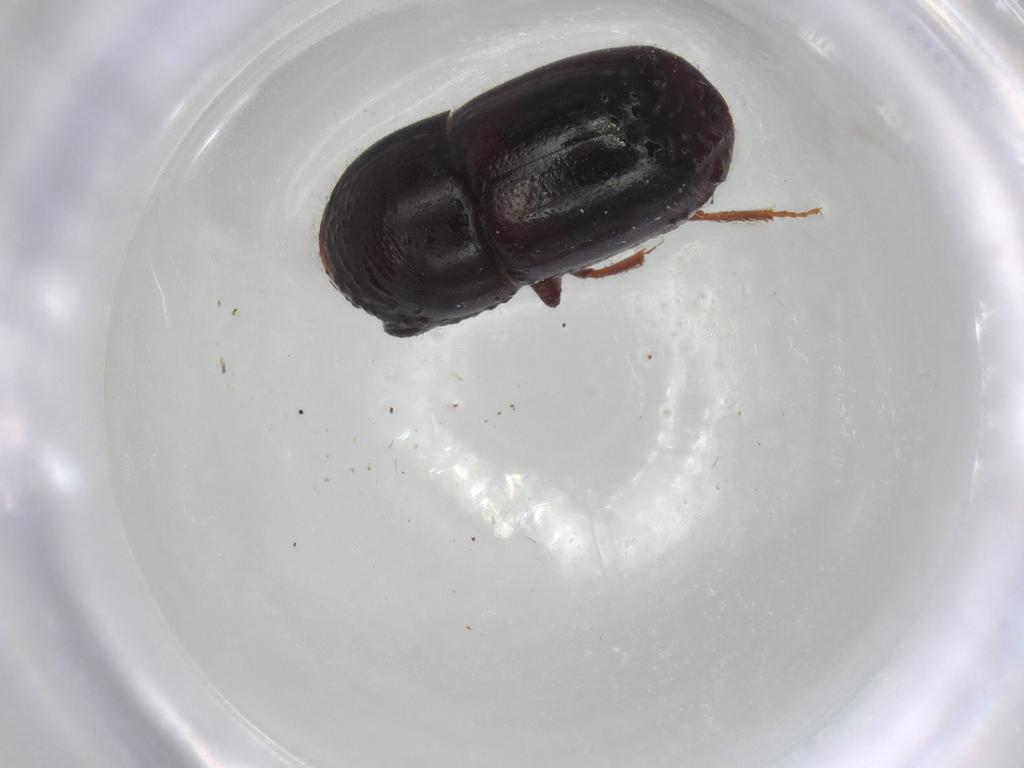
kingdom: Animalia
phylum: Arthropoda
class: Insecta
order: Coleoptera
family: Curculionidae
